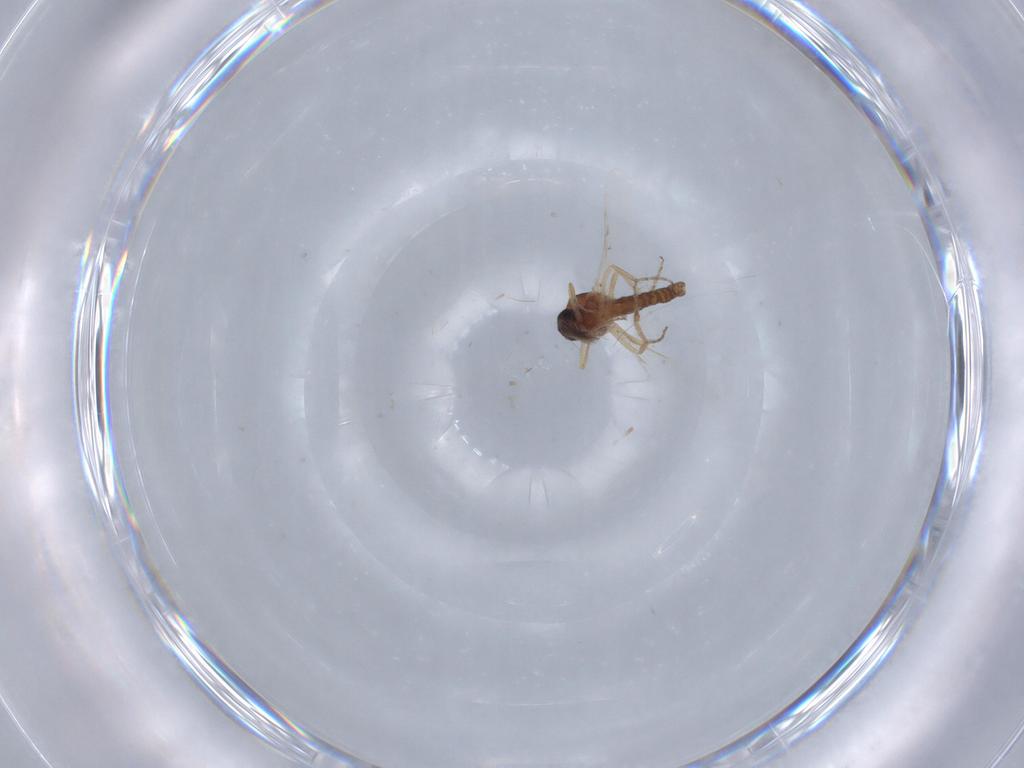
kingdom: Animalia
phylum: Arthropoda
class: Insecta
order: Diptera
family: Ceratopogonidae
